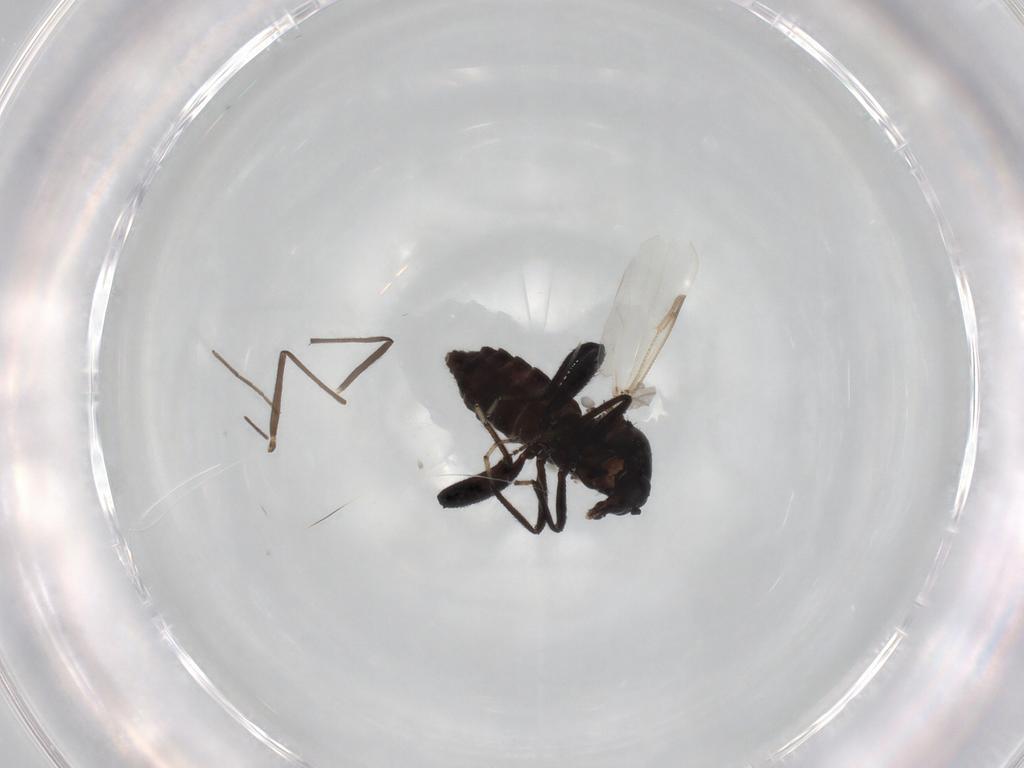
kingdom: Animalia
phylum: Arthropoda
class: Insecta
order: Diptera
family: Ceratopogonidae
